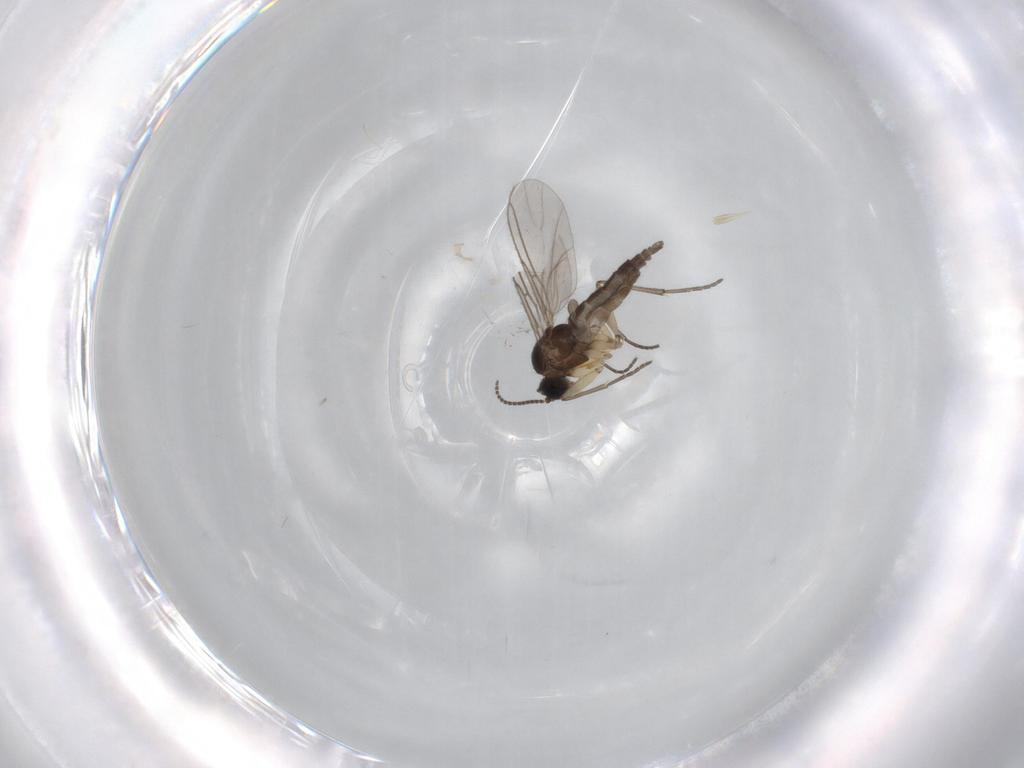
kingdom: Animalia
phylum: Arthropoda
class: Insecta
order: Diptera
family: Sciaridae
